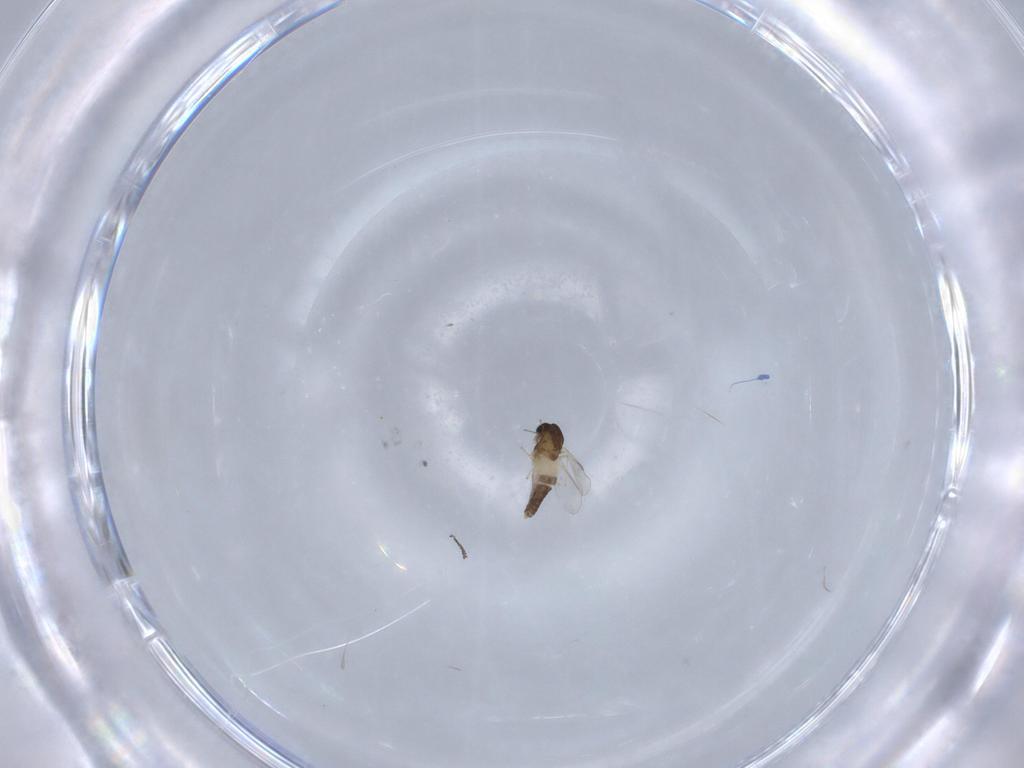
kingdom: Animalia
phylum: Arthropoda
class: Insecta
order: Diptera
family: Chironomidae
